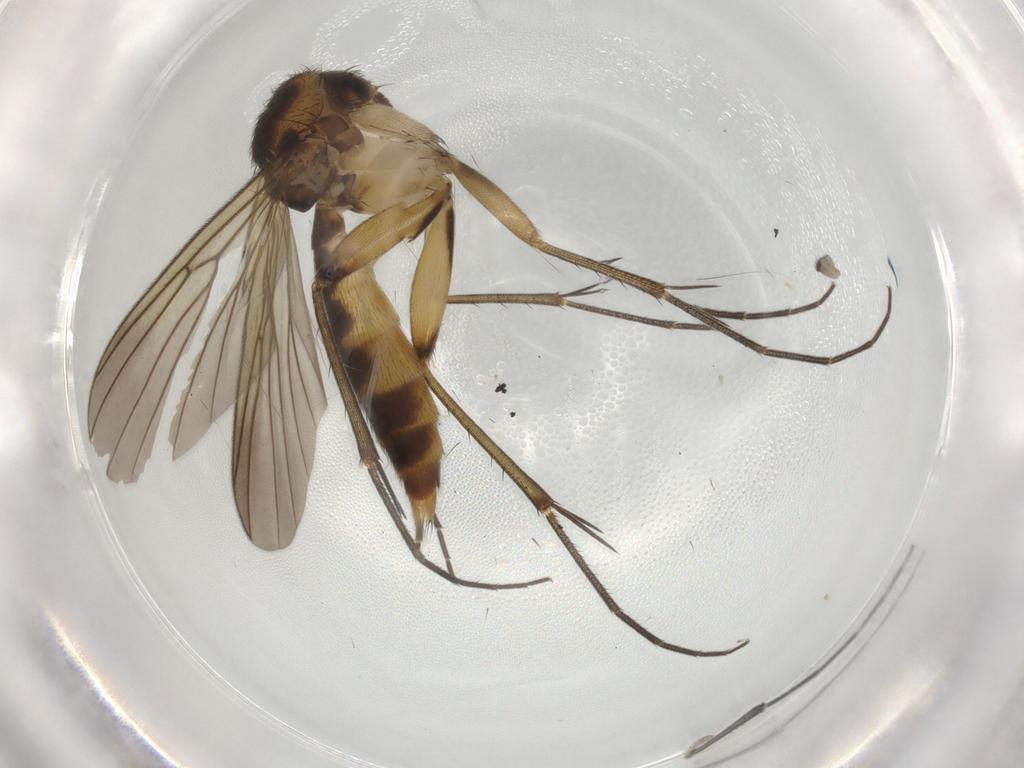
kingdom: Animalia
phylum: Arthropoda
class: Insecta
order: Diptera
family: Mycetophilidae
